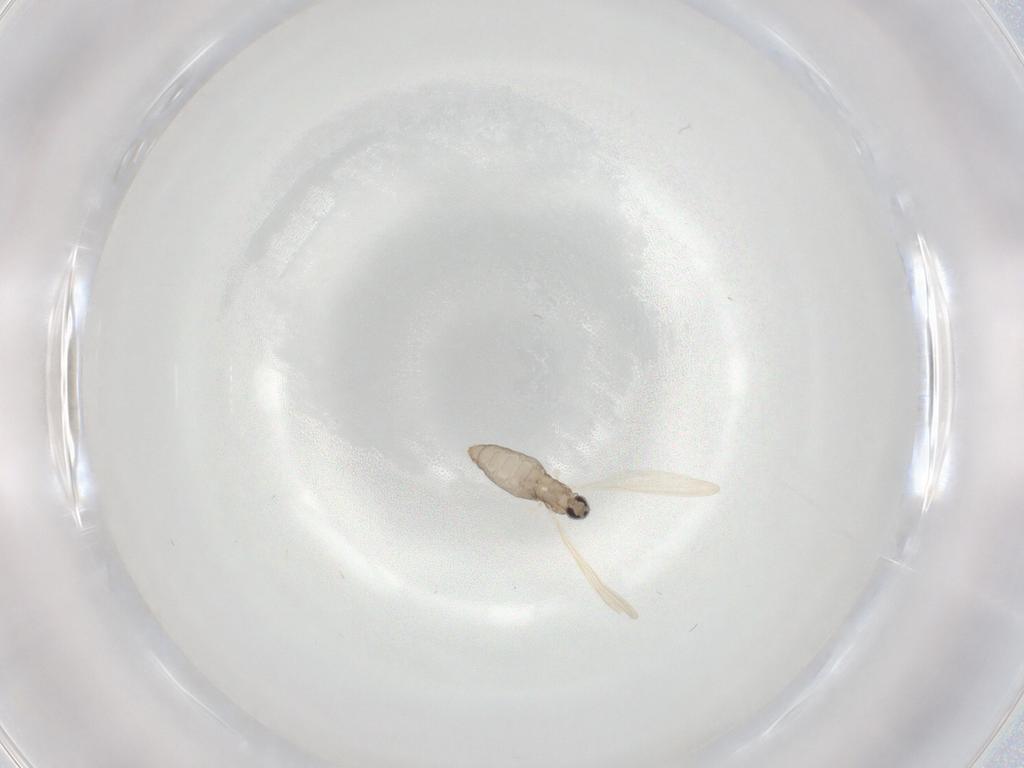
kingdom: Animalia
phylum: Arthropoda
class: Insecta
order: Diptera
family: Cecidomyiidae
